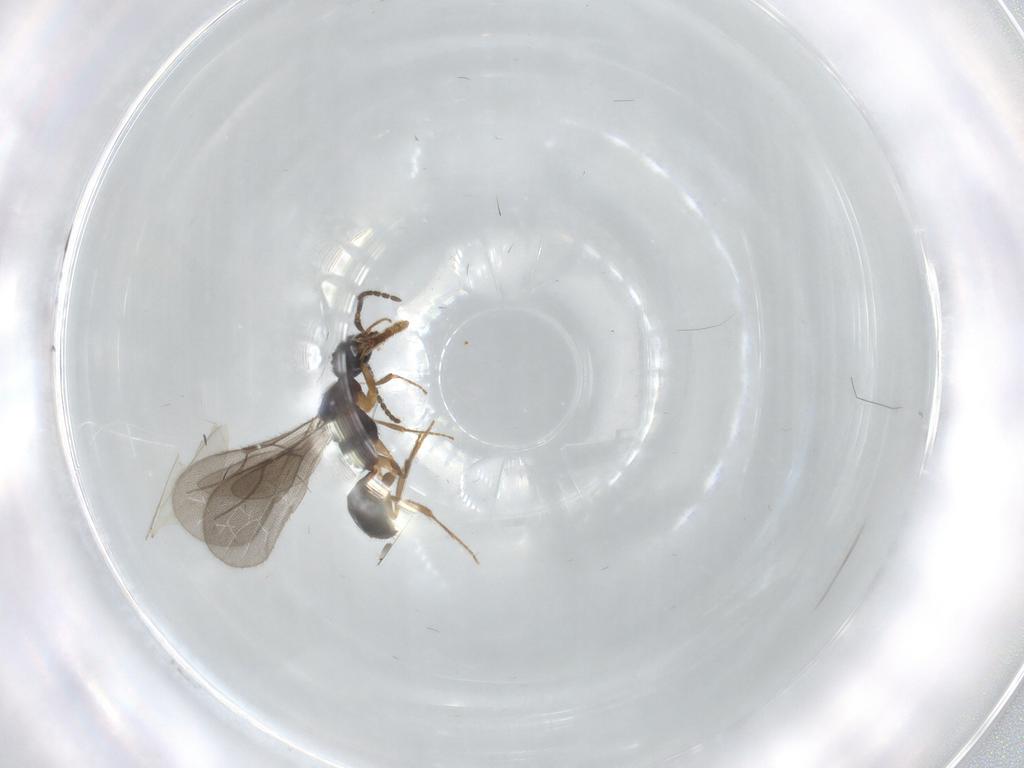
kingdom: Animalia
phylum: Arthropoda
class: Insecta
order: Hymenoptera
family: Bethylidae
